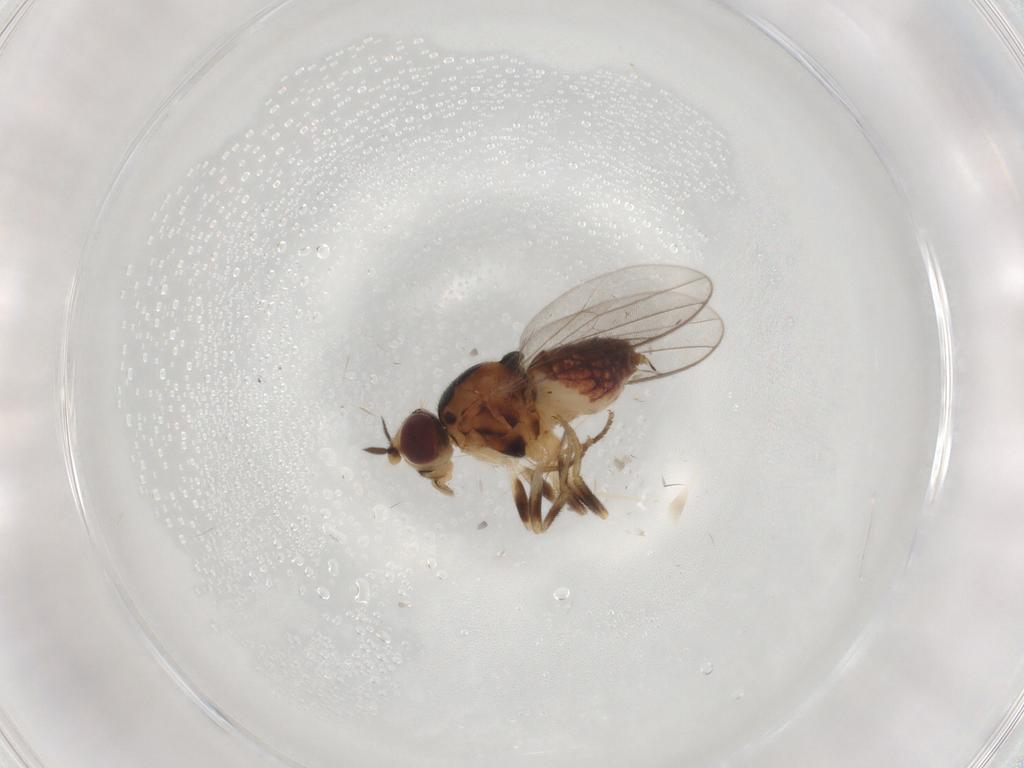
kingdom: Animalia
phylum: Arthropoda
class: Insecta
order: Diptera
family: Chloropidae
